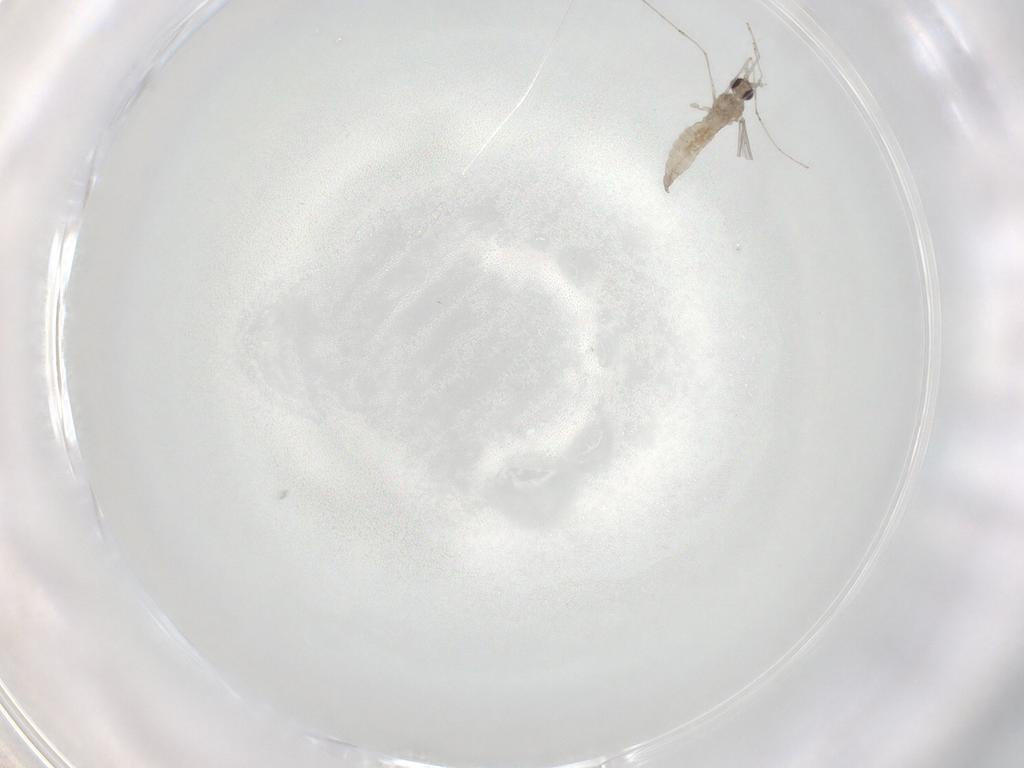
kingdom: Animalia
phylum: Arthropoda
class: Insecta
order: Diptera
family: Cecidomyiidae
